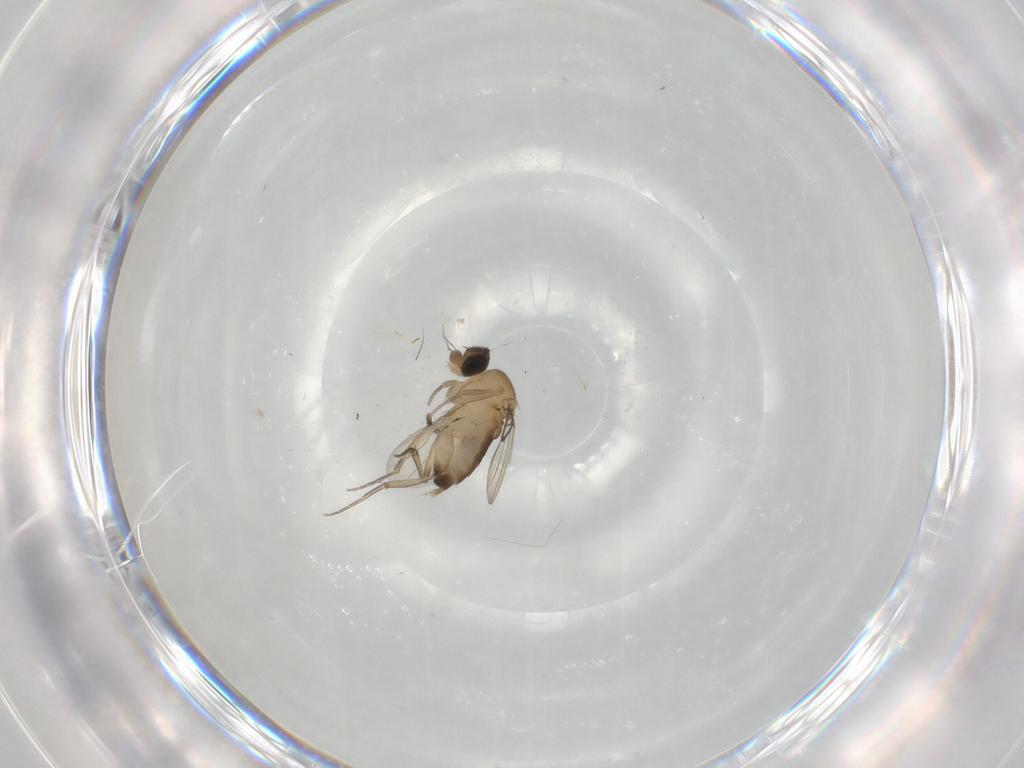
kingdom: Animalia
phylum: Arthropoda
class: Insecta
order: Diptera
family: Phoridae
